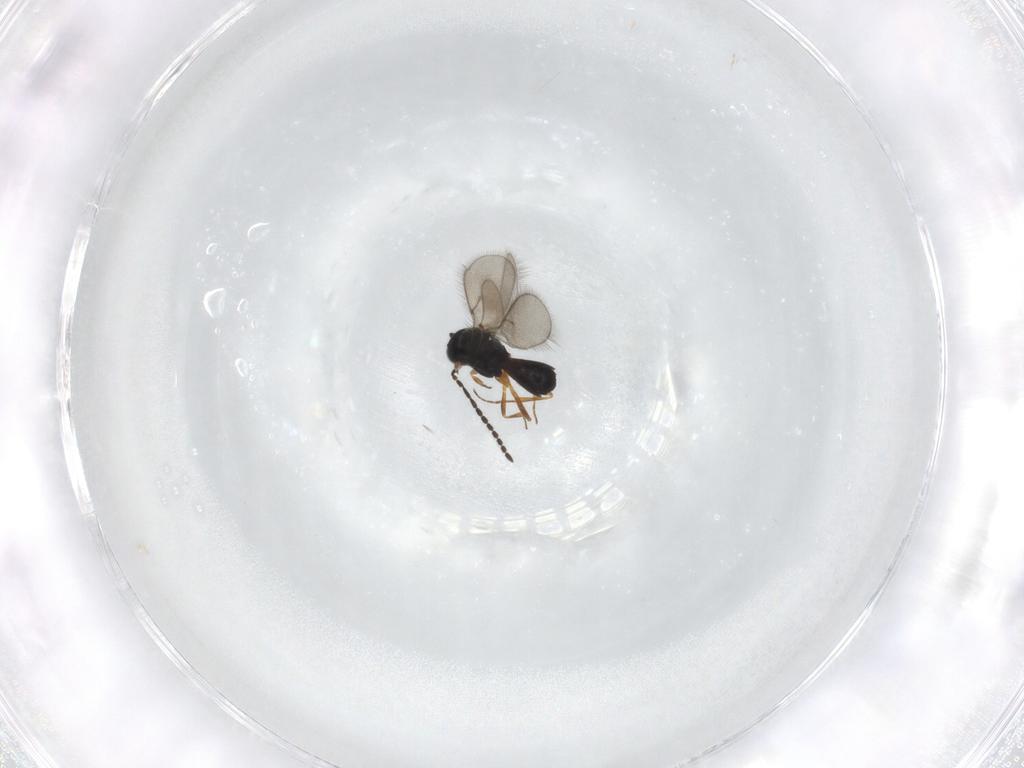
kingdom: Animalia
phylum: Arthropoda
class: Insecta
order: Hymenoptera
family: Scelionidae
